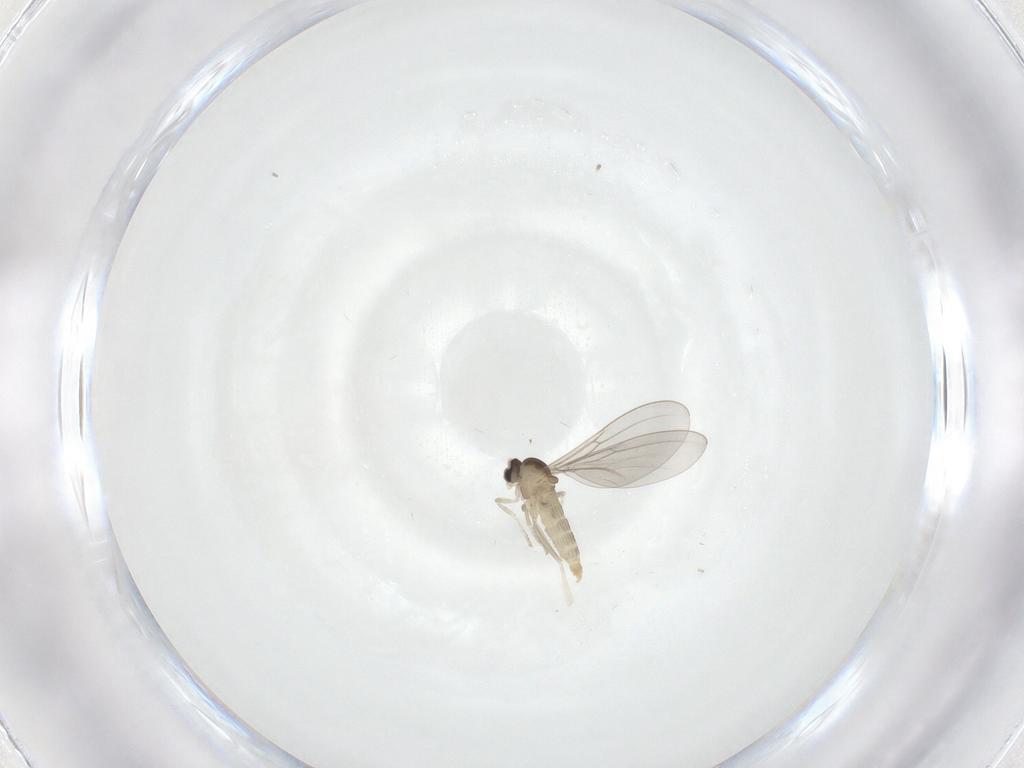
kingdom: Animalia
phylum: Arthropoda
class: Insecta
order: Diptera
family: Cecidomyiidae
